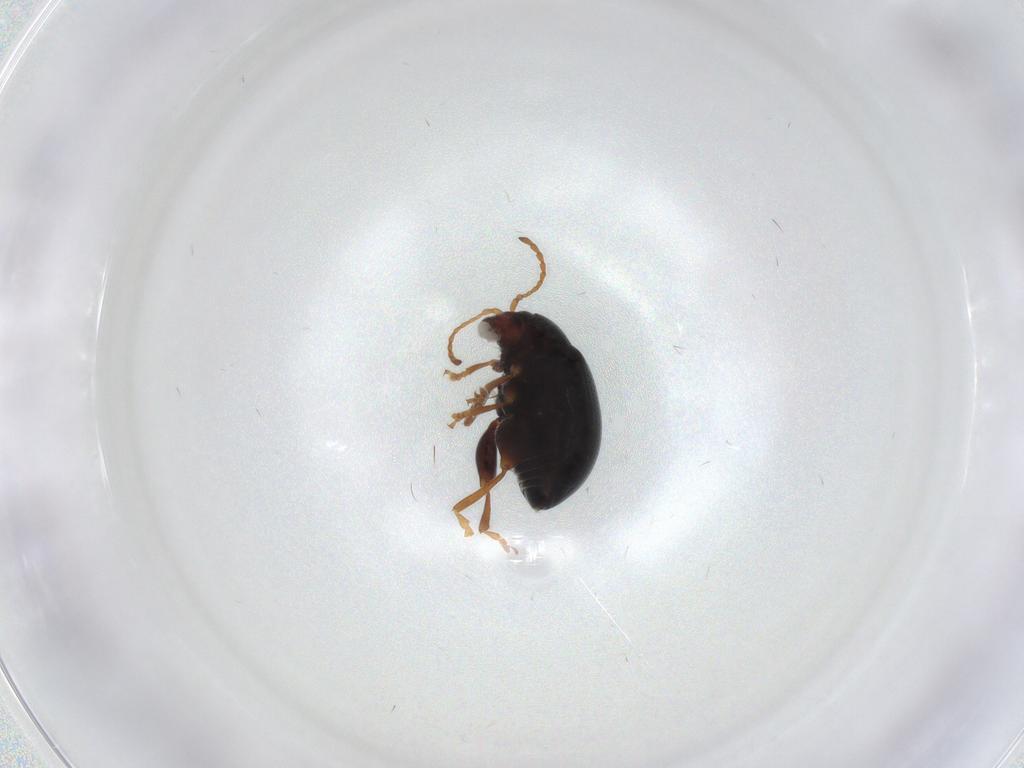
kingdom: Animalia
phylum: Arthropoda
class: Insecta
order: Coleoptera
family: Chrysomelidae
